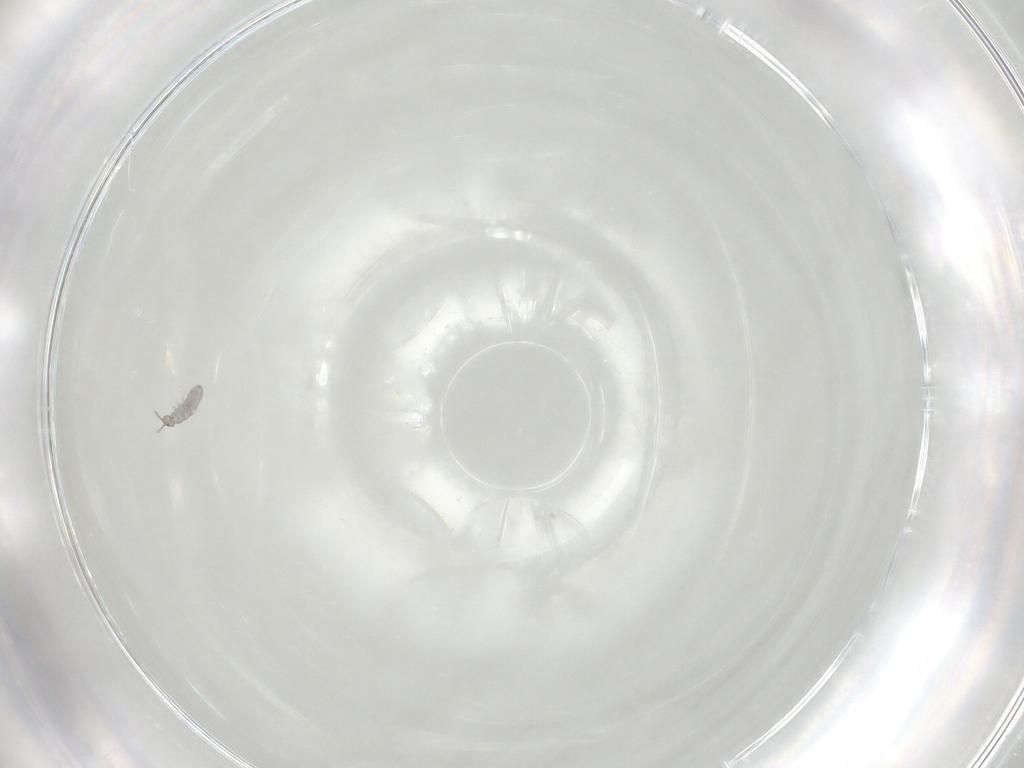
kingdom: Animalia
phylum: Arthropoda
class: Collembola
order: Entomobryomorpha
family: Isotomidae
